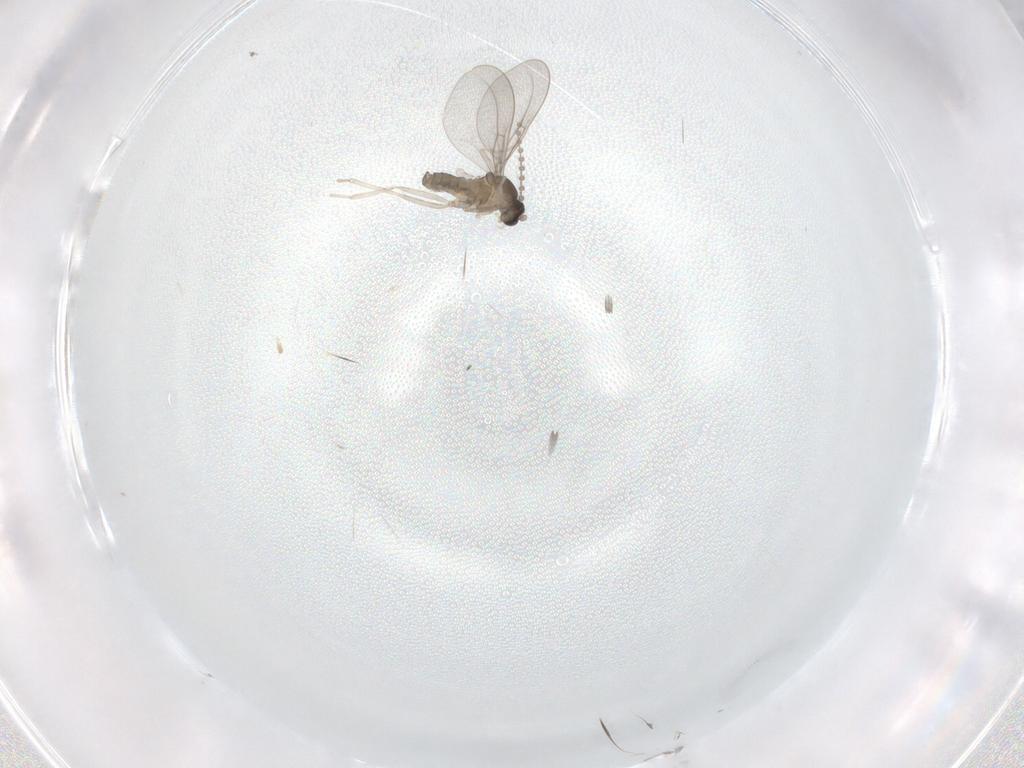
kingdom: Animalia
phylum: Arthropoda
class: Insecta
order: Diptera
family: Cecidomyiidae
